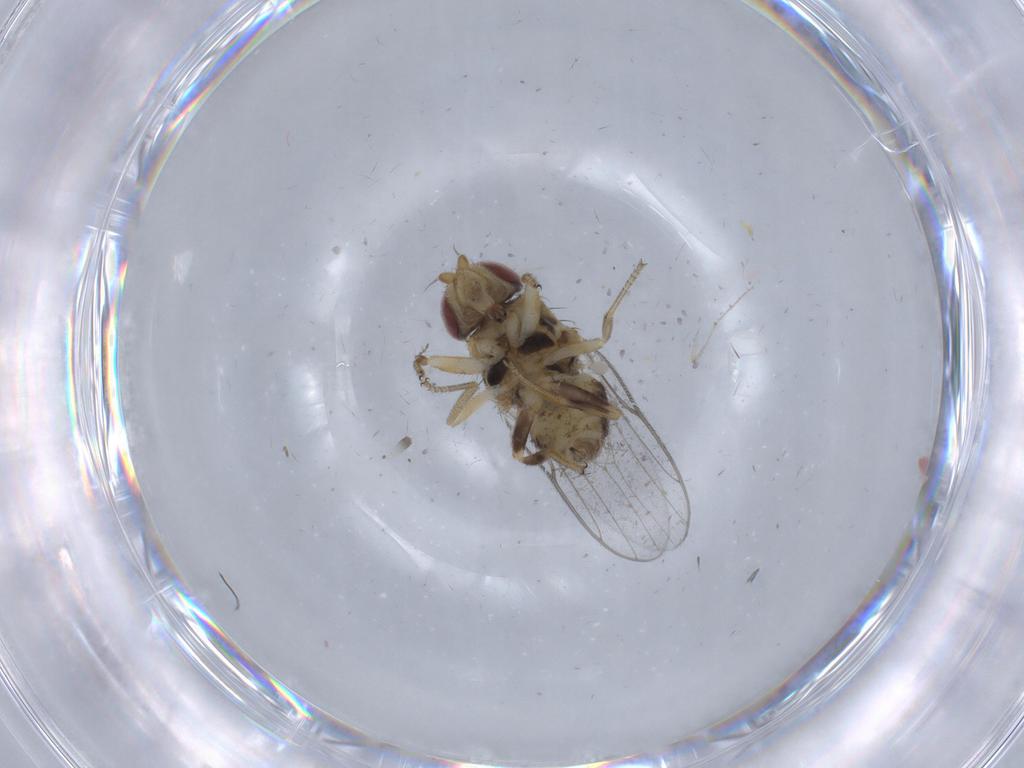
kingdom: Animalia
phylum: Arthropoda
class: Insecta
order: Diptera
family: Chloropidae
